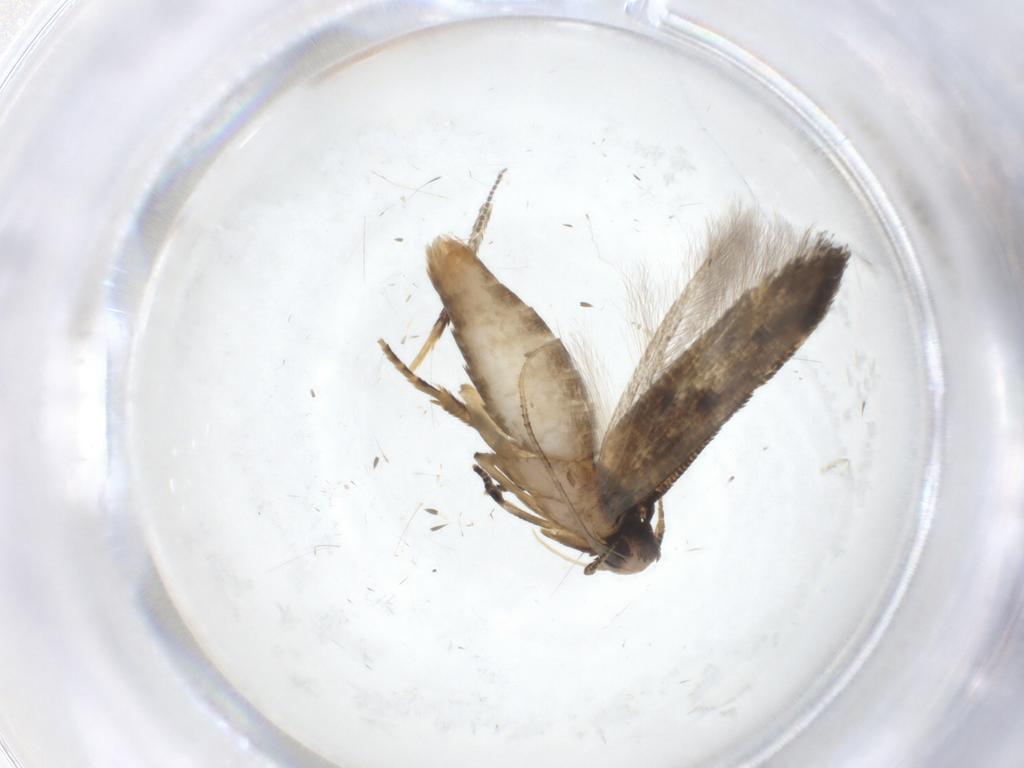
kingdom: Animalia
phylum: Arthropoda
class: Insecta
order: Lepidoptera
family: Gelechiidae
